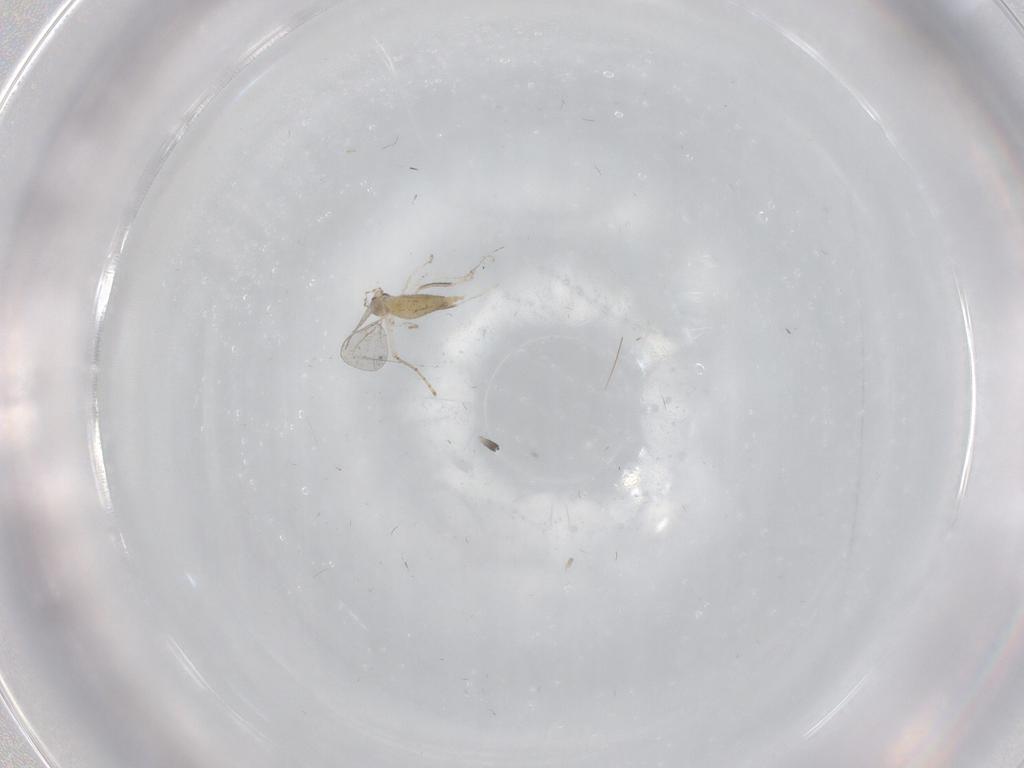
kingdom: Animalia
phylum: Arthropoda
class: Insecta
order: Diptera
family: Cecidomyiidae
